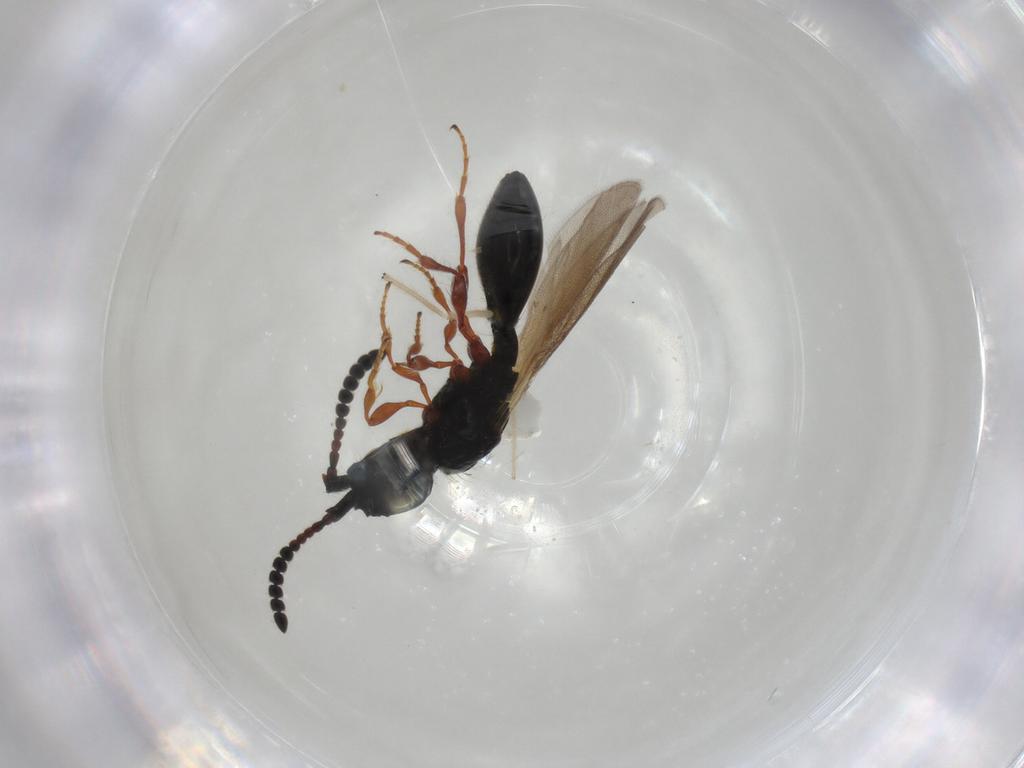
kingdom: Animalia
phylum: Arthropoda
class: Insecta
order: Hymenoptera
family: Diapriidae
